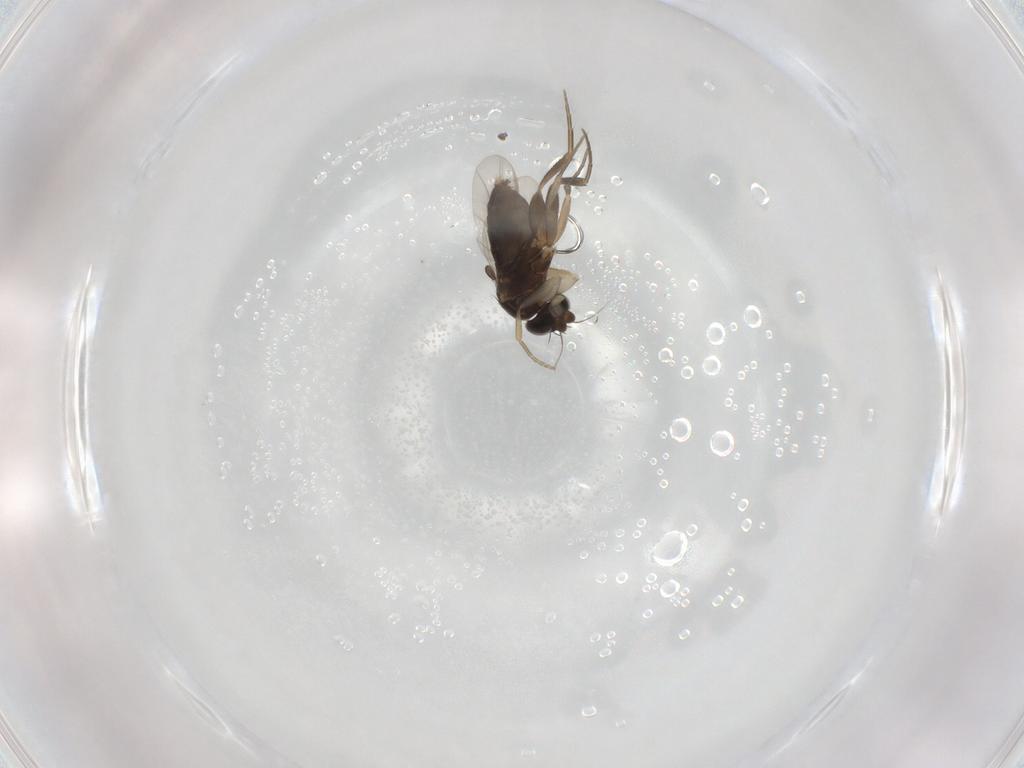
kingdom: Animalia
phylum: Arthropoda
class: Insecta
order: Diptera
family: Phoridae
